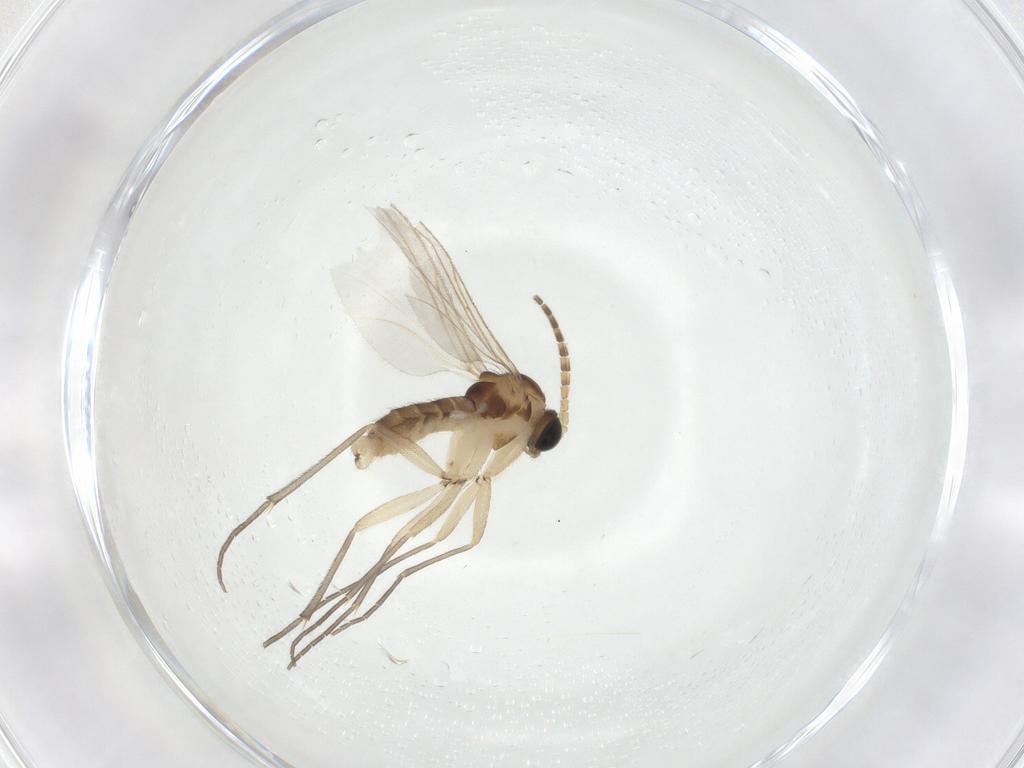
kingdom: Animalia
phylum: Arthropoda
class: Insecta
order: Diptera
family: Sciaridae
